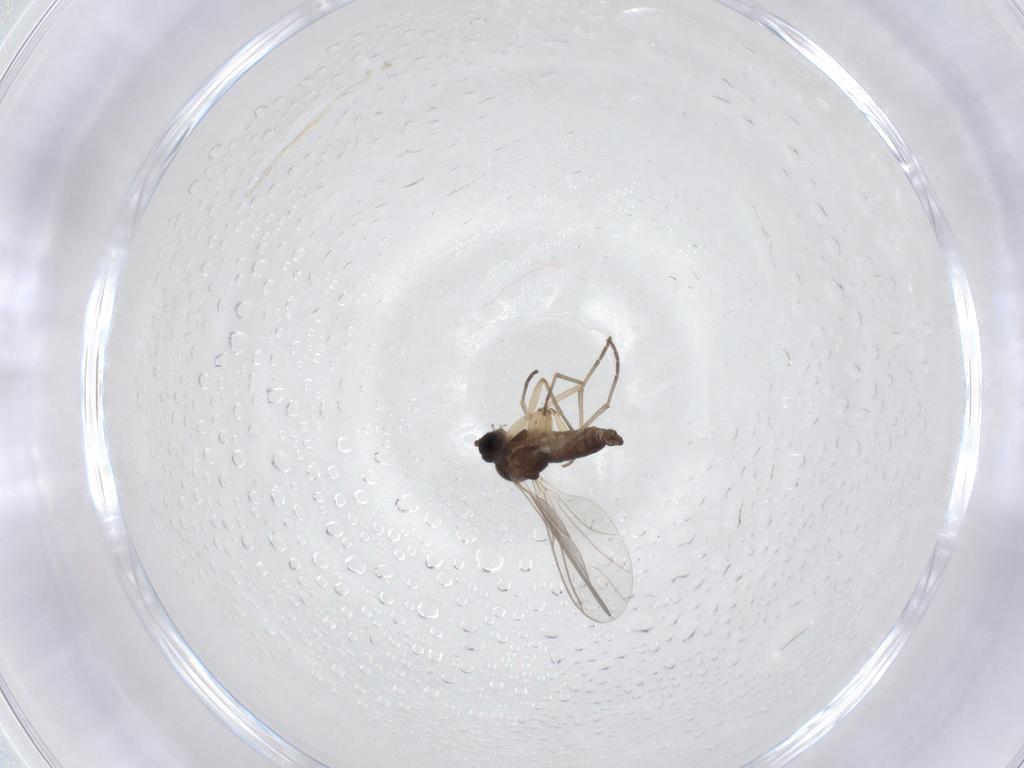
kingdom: Animalia
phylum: Arthropoda
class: Insecta
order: Diptera
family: Sciaridae
